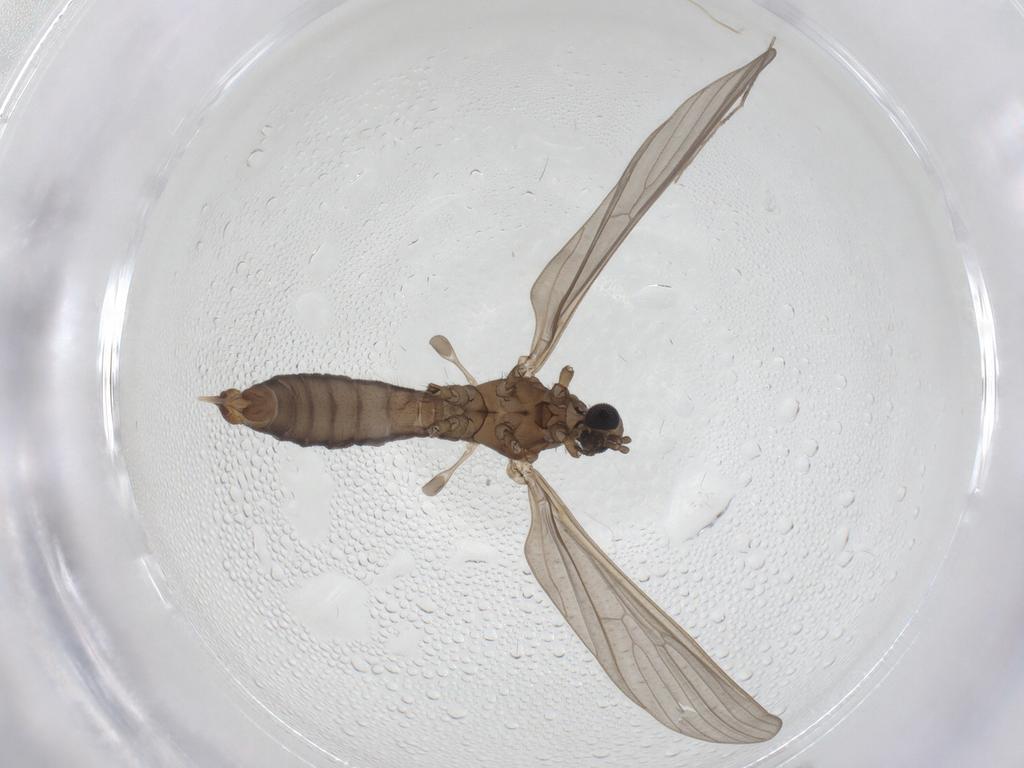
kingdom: Animalia
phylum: Arthropoda
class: Insecta
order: Diptera
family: Limoniidae
